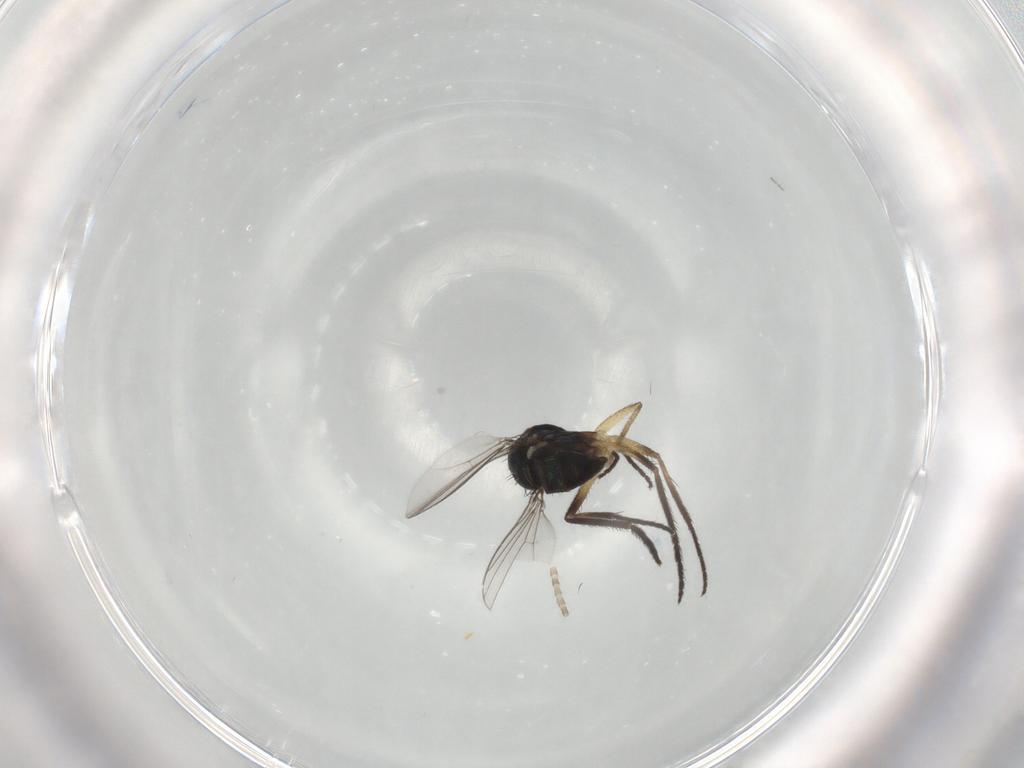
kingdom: Animalia
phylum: Arthropoda
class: Insecta
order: Diptera
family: Dolichopodidae
